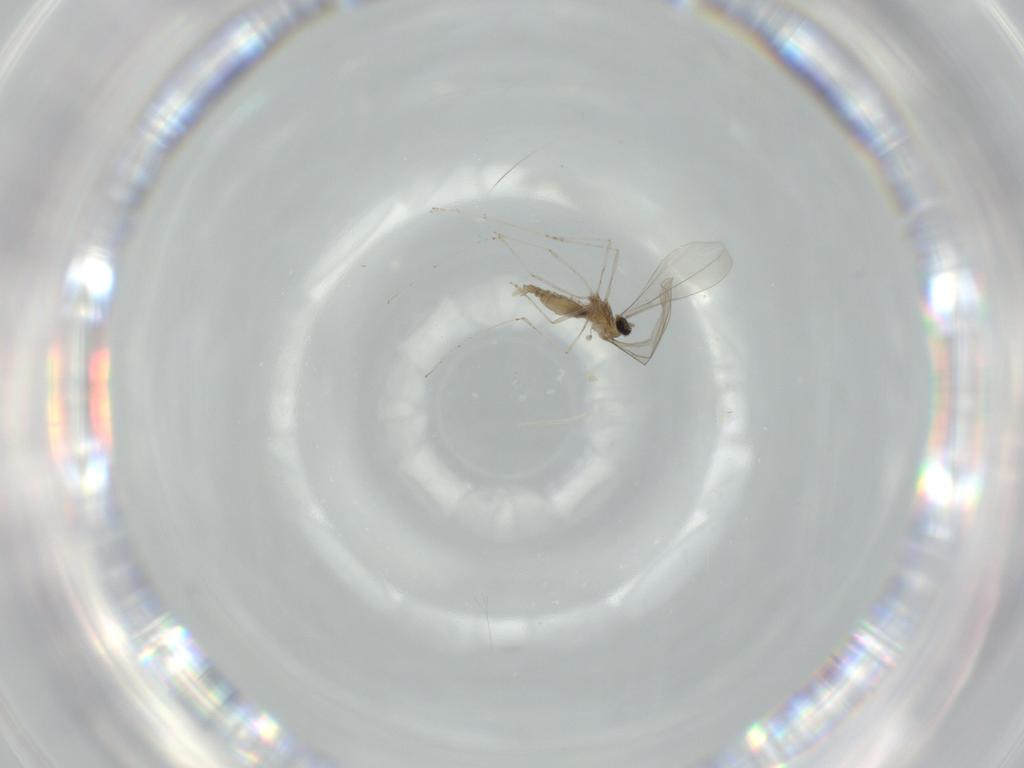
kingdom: Animalia
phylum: Arthropoda
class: Insecta
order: Diptera
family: Cecidomyiidae
